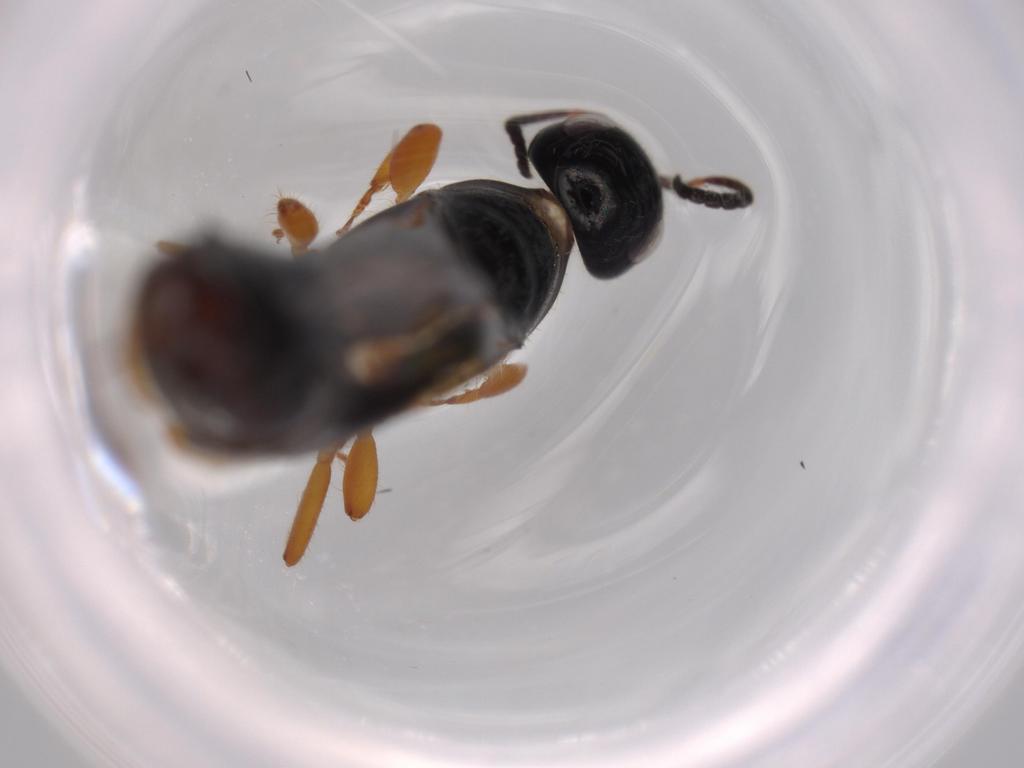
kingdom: Animalia
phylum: Arthropoda
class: Insecta
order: Hymenoptera
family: Scolebythidae
